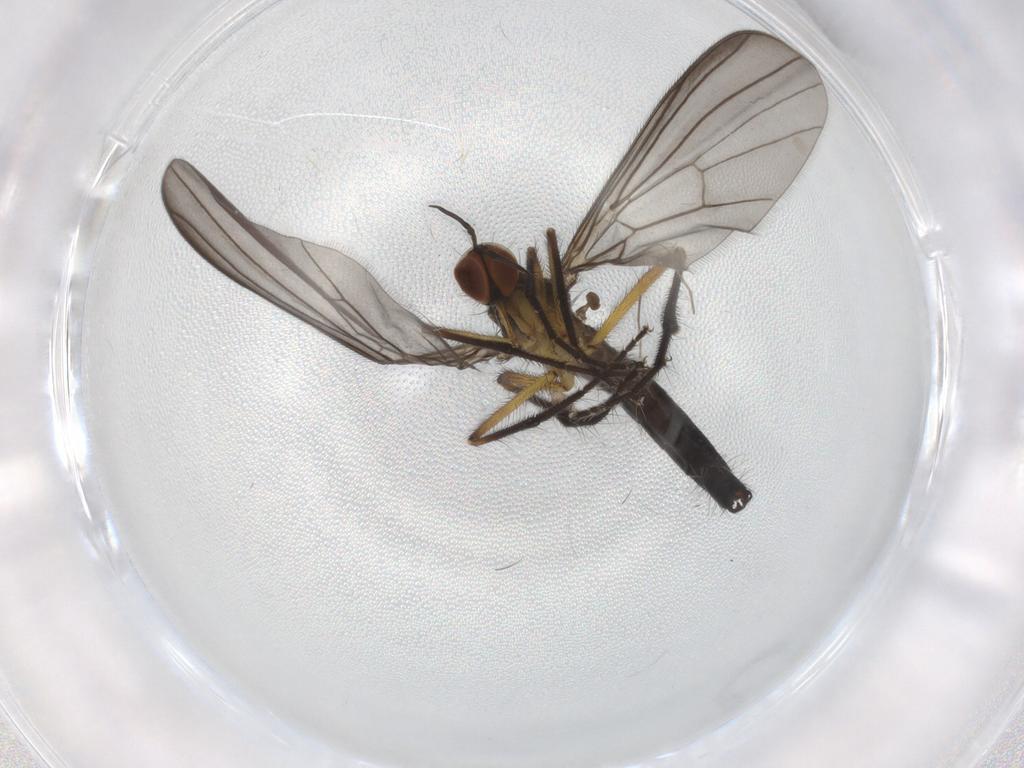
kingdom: Animalia
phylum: Arthropoda
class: Insecta
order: Diptera
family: Empididae
